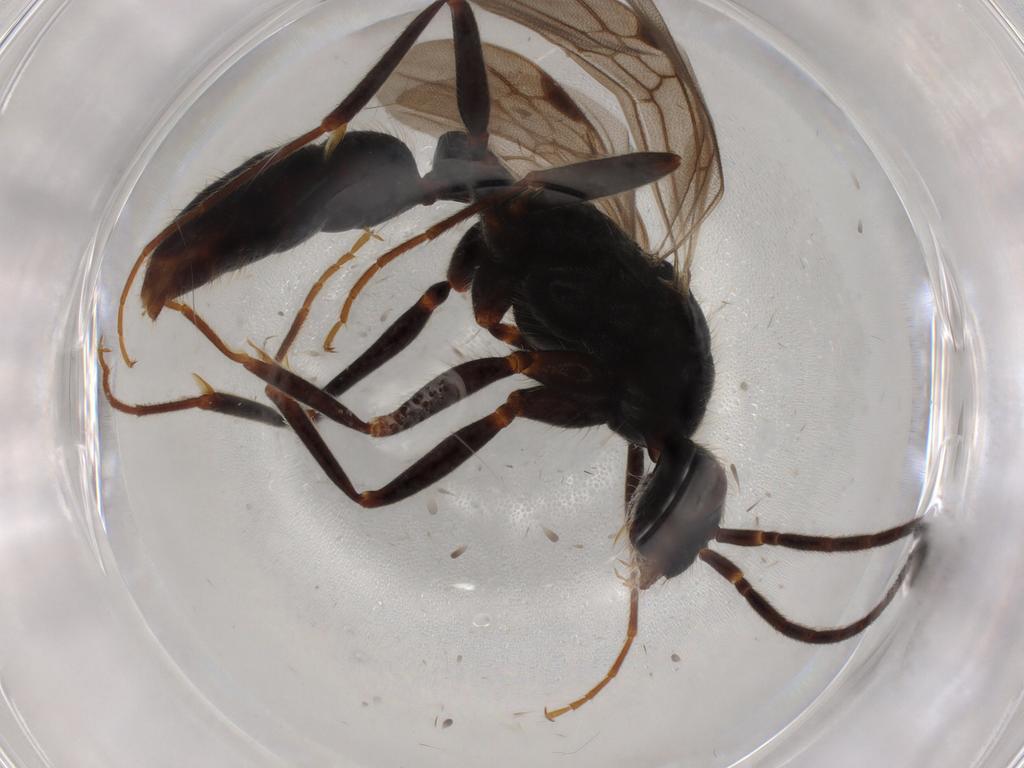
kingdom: Animalia
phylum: Arthropoda
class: Insecta
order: Hymenoptera
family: Formicidae
